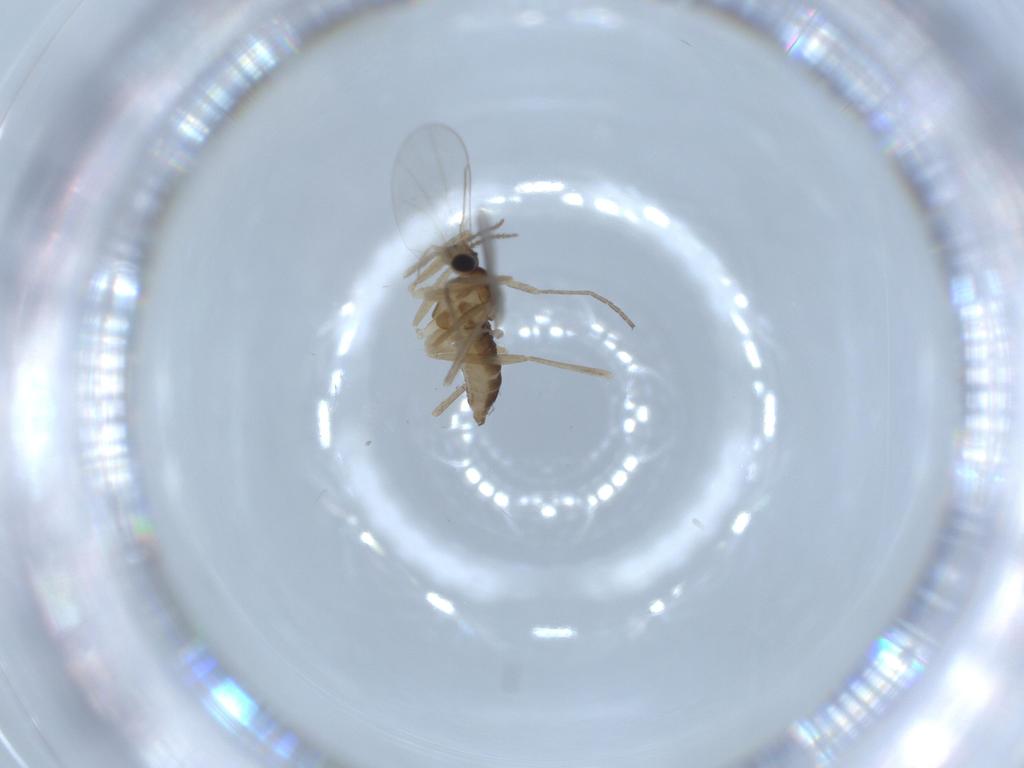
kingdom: Animalia
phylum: Arthropoda
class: Insecta
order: Diptera
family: Cecidomyiidae
